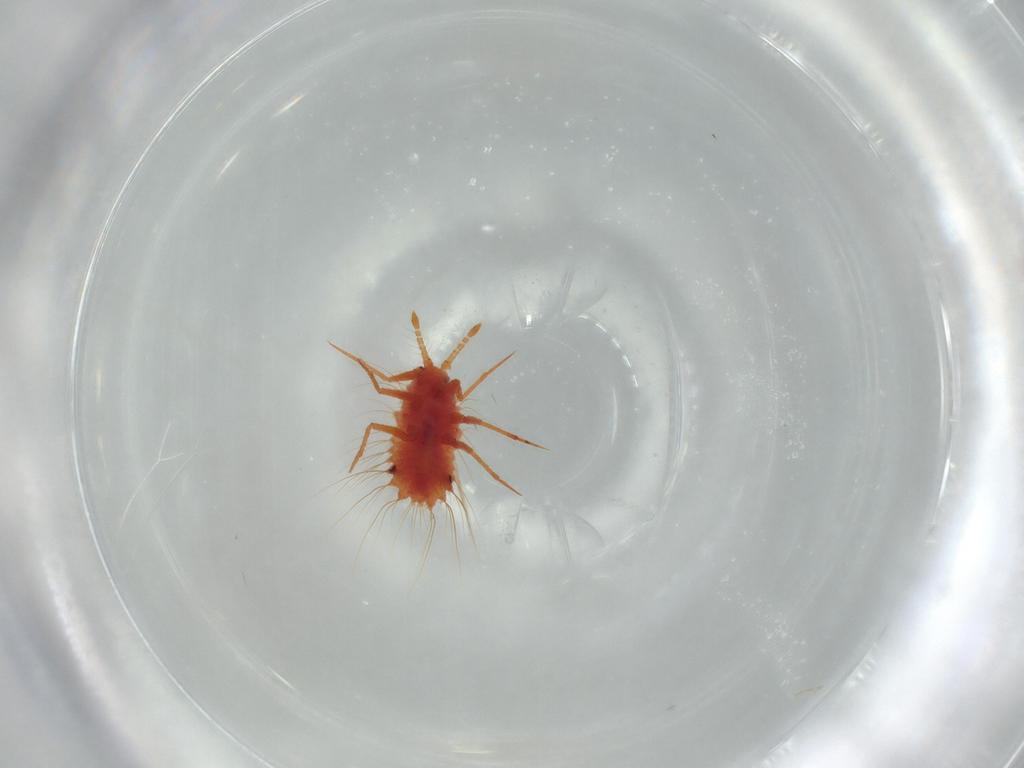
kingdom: Animalia
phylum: Arthropoda
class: Insecta
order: Hemiptera
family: Monophlebidae
